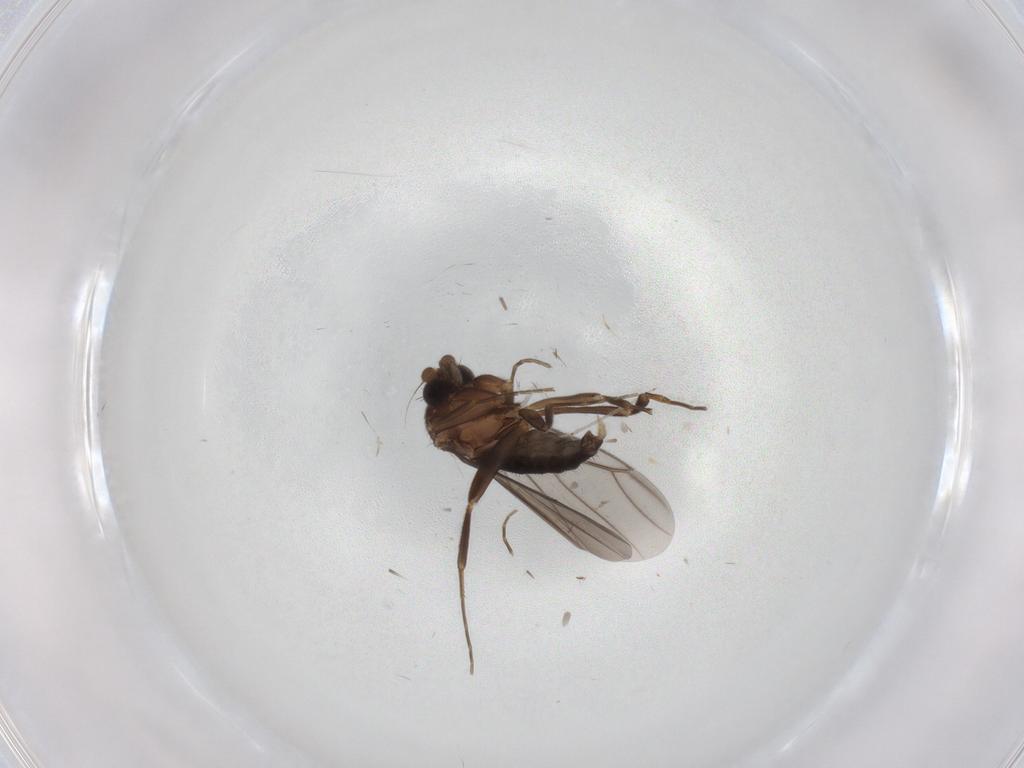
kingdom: Animalia
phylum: Arthropoda
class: Insecta
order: Diptera
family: Cecidomyiidae
